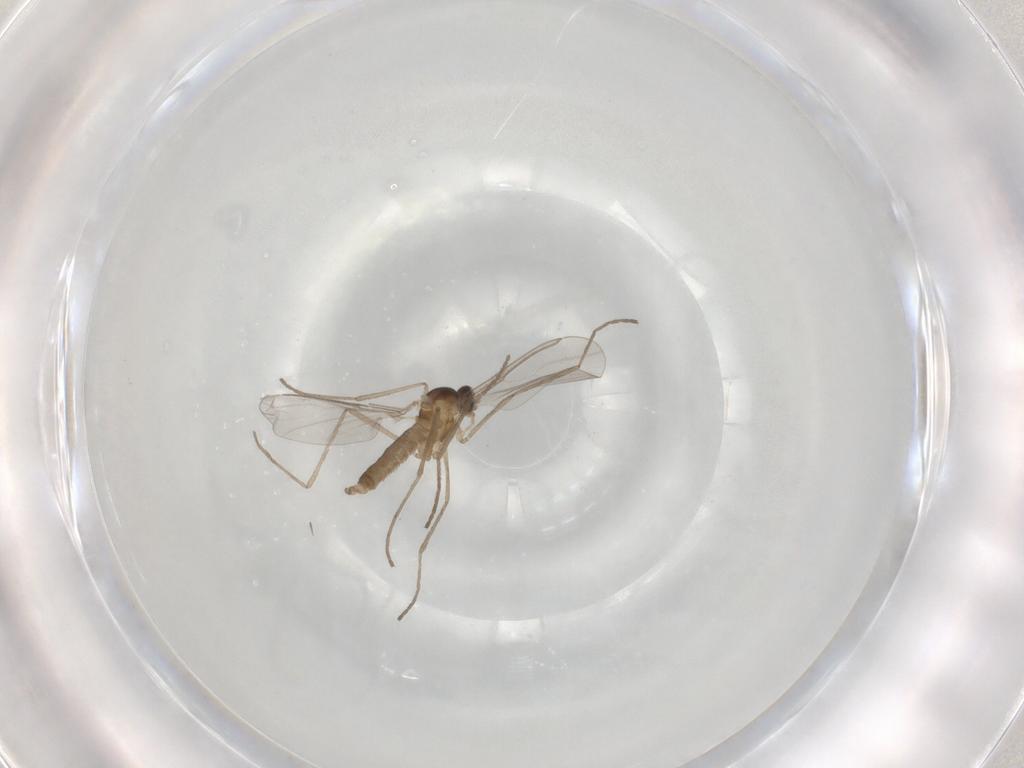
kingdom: Animalia
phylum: Arthropoda
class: Insecta
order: Diptera
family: Cecidomyiidae
